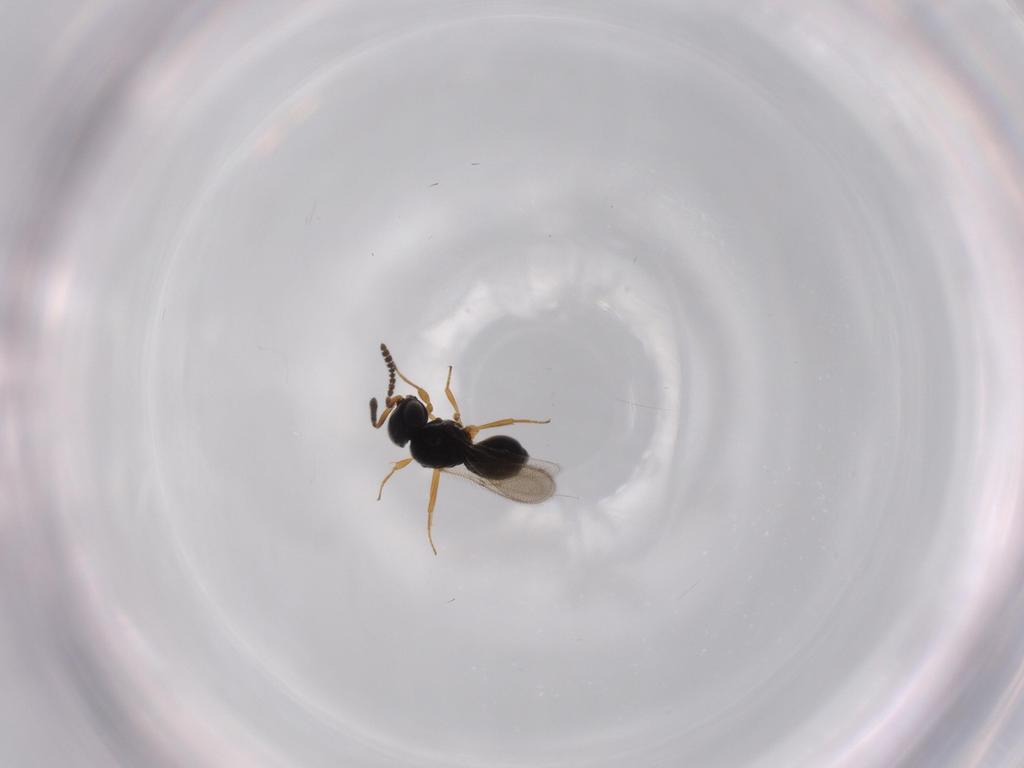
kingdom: Animalia
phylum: Arthropoda
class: Insecta
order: Hymenoptera
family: Scelionidae
